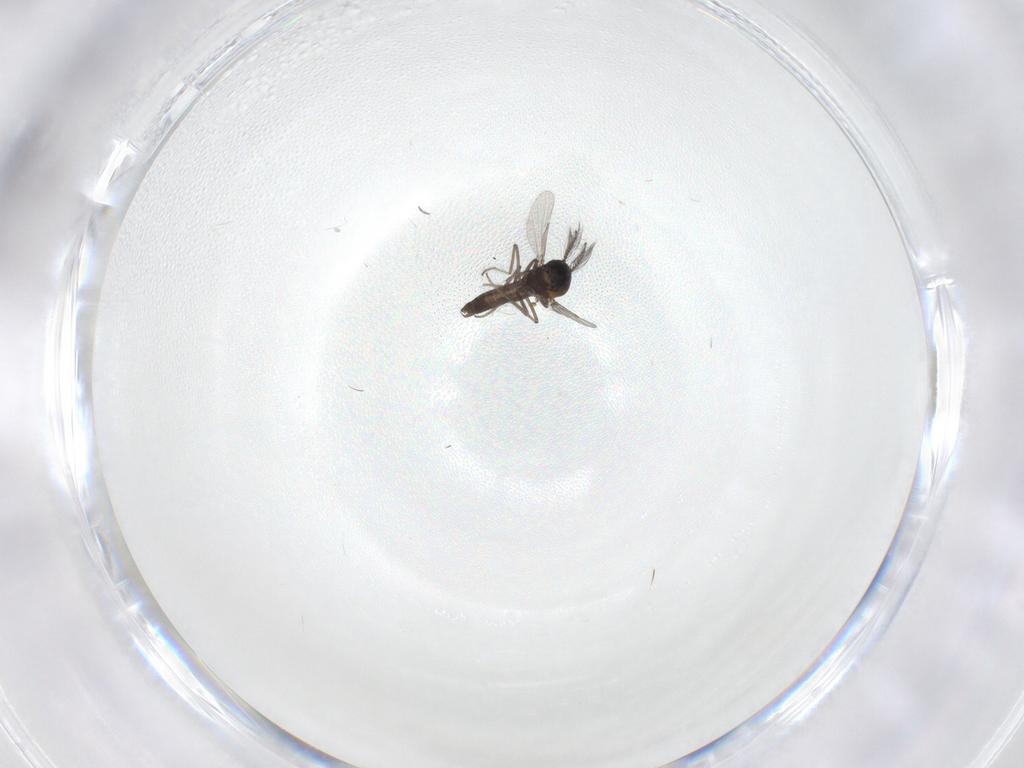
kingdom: Animalia
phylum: Arthropoda
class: Insecta
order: Diptera
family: Ceratopogonidae
